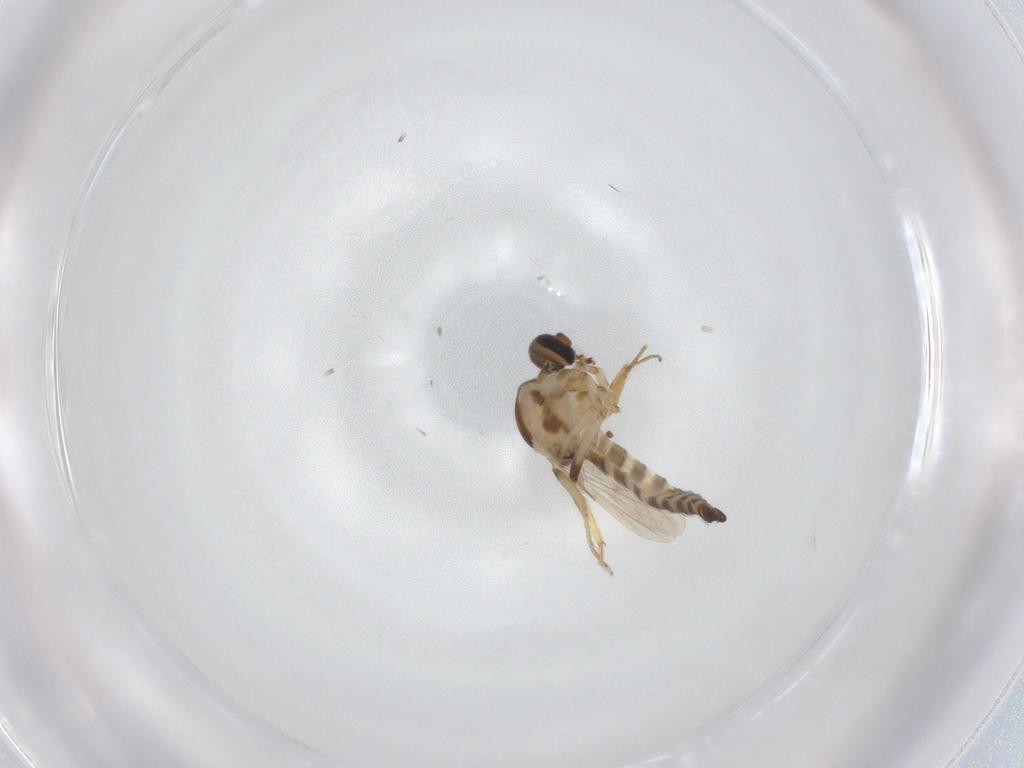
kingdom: Animalia
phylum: Arthropoda
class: Insecta
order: Diptera
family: Ceratopogonidae
